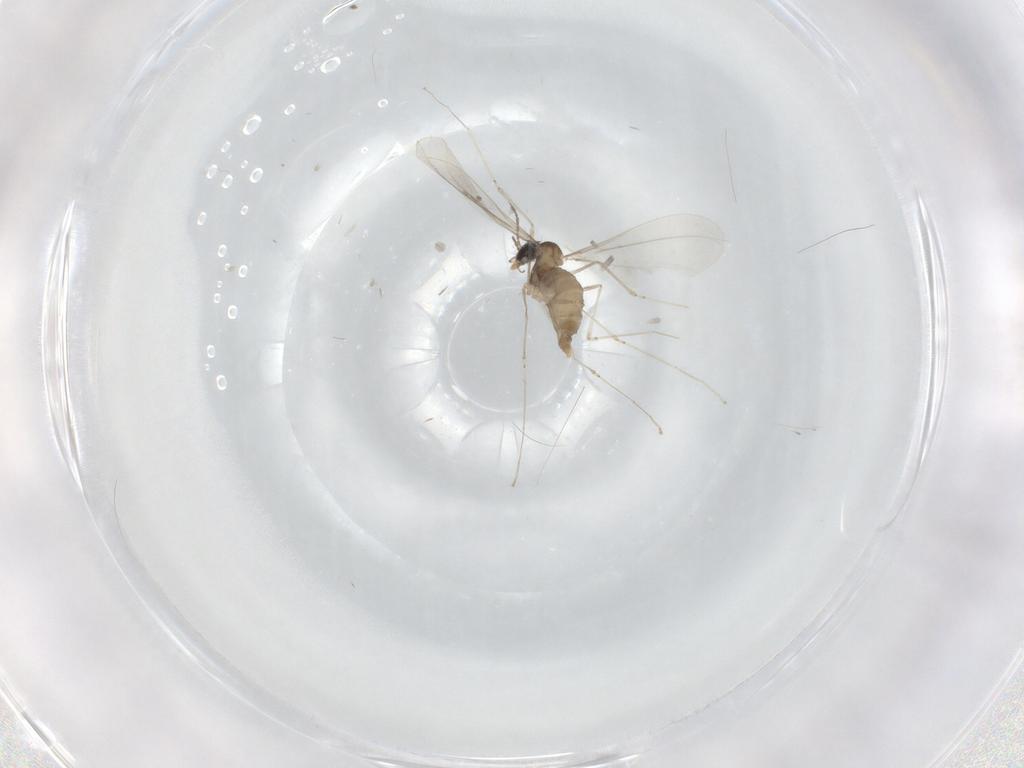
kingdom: Animalia
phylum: Arthropoda
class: Insecta
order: Diptera
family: Cecidomyiidae
